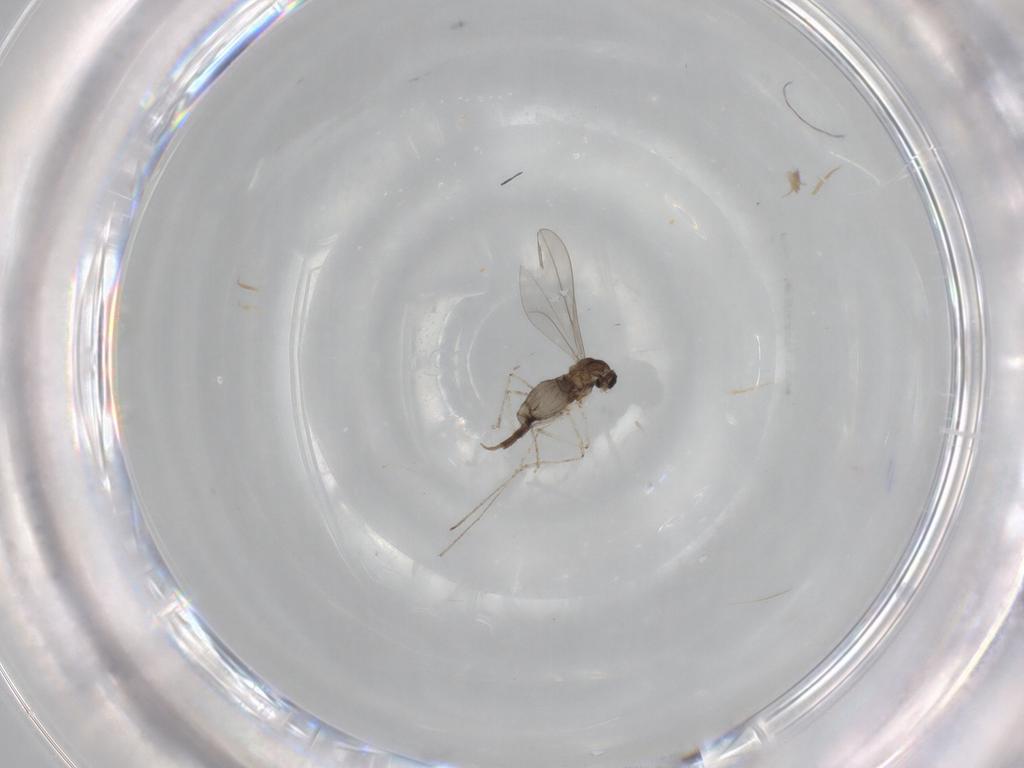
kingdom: Animalia
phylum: Arthropoda
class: Insecta
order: Diptera
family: Cecidomyiidae
